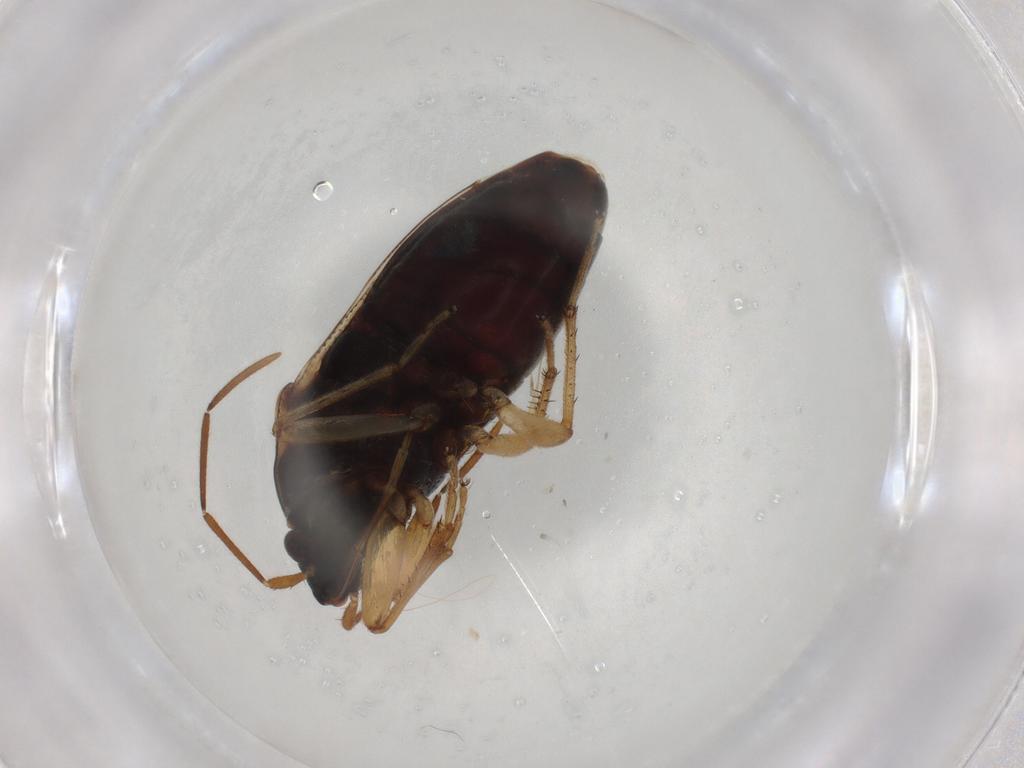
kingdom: Animalia
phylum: Arthropoda
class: Insecta
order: Hemiptera
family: Rhyparochromidae
